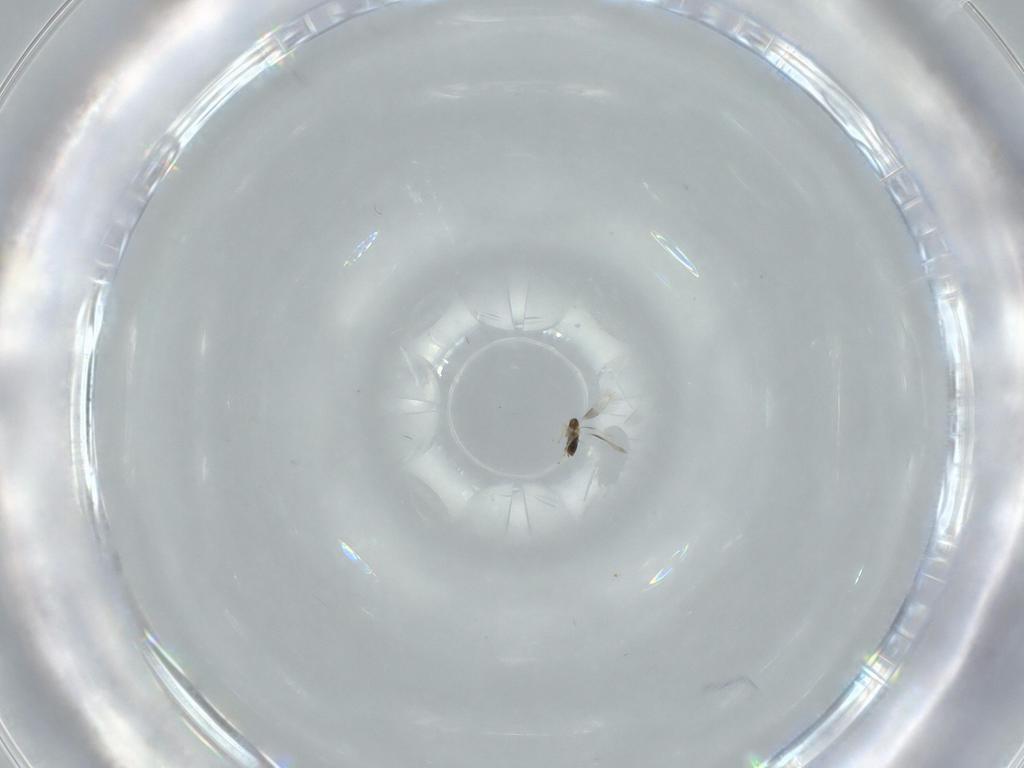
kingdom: Animalia
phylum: Arthropoda
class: Insecta
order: Hymenoptera
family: Aphelinidae
